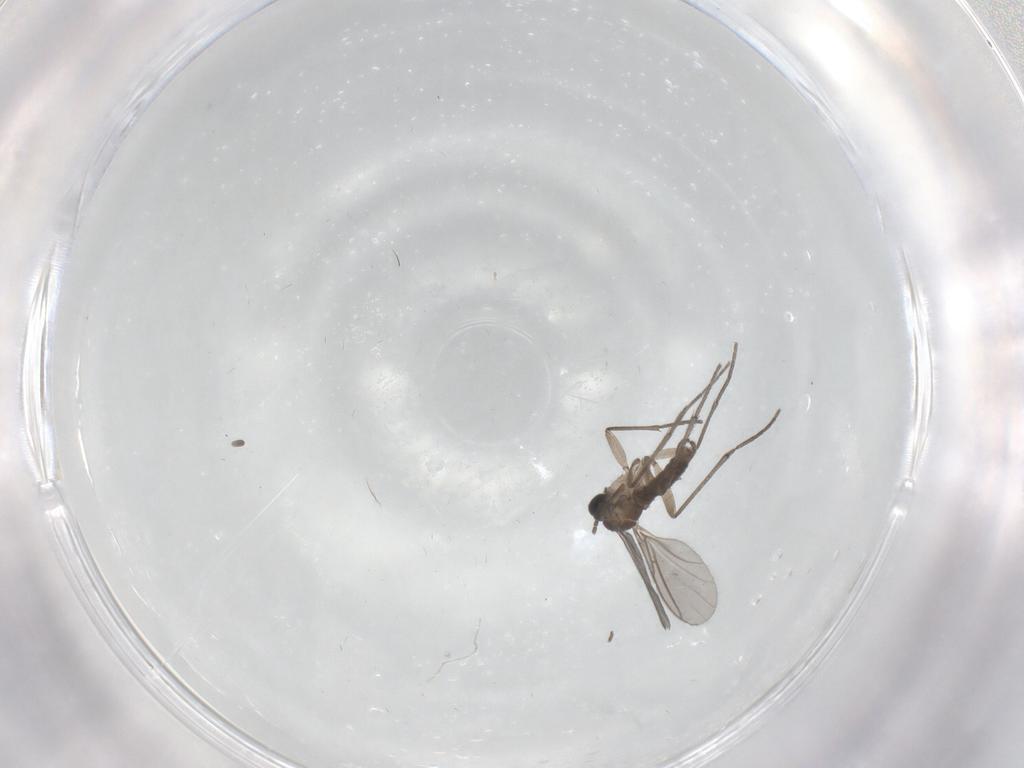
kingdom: Animalia
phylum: Arthropoda
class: Insecta
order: Diptera
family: Sciaridae
